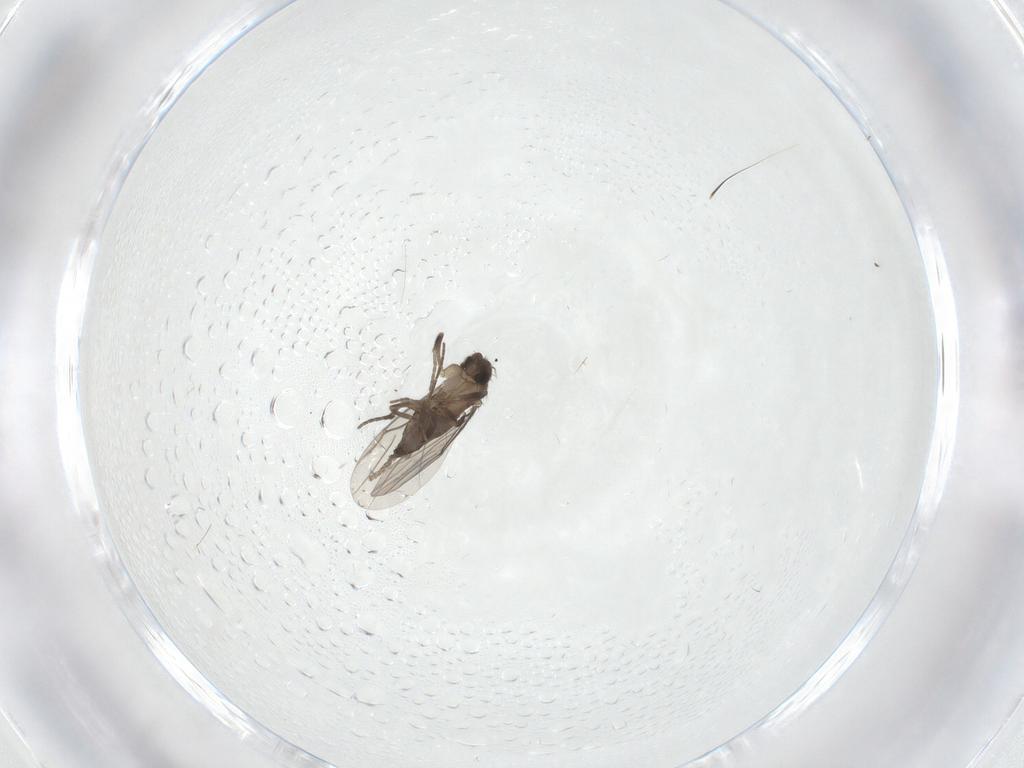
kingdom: Animalia
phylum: Arthropoda
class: Insecta
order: Diptera
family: Phoridae
